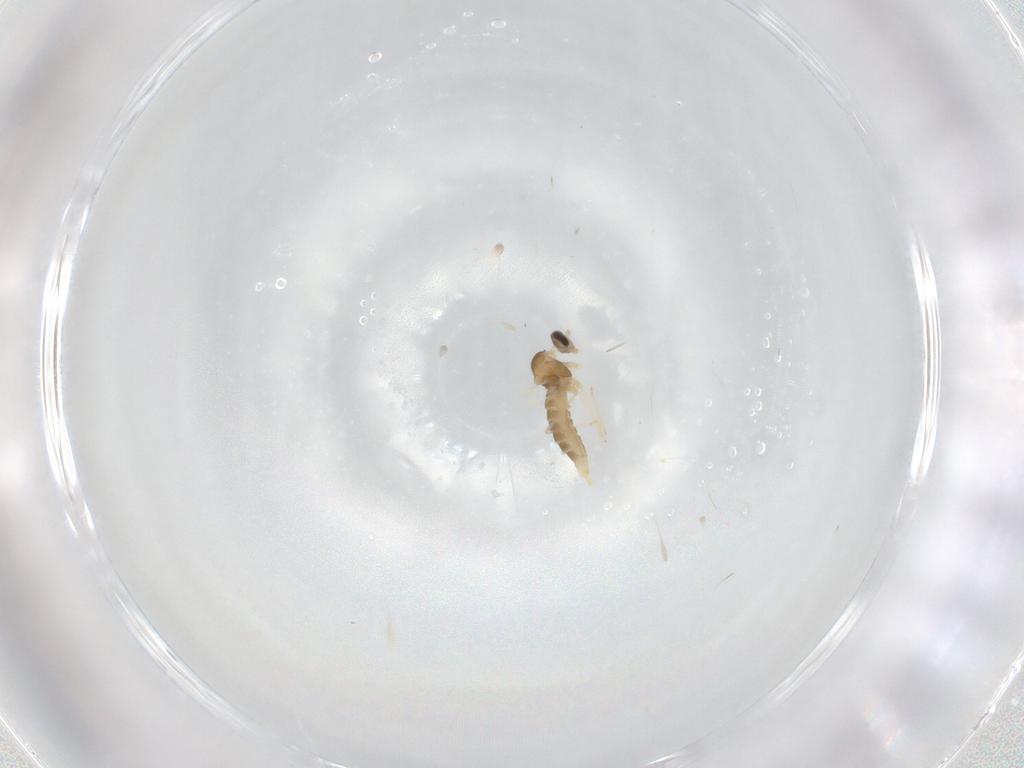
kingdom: Animalia
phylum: Arthropoda
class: Insecta
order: Diptera
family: Cecidomyiidae
